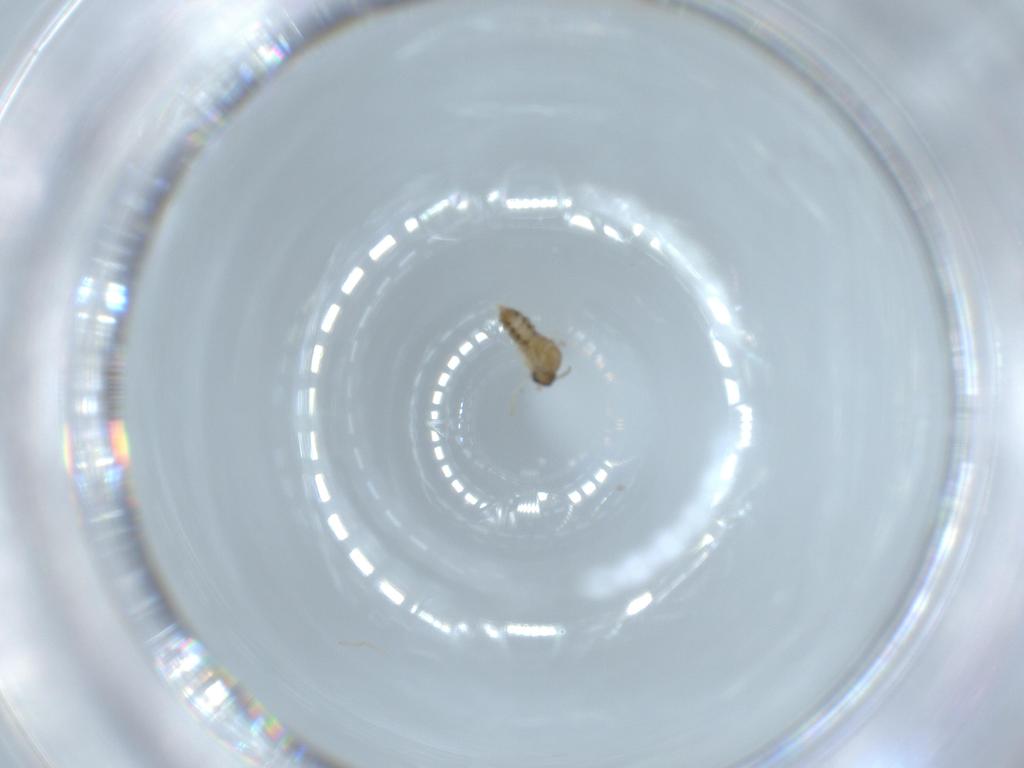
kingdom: Animalia
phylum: Arthropoda
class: Insecta
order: Diptera
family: Cecidomyiidae
